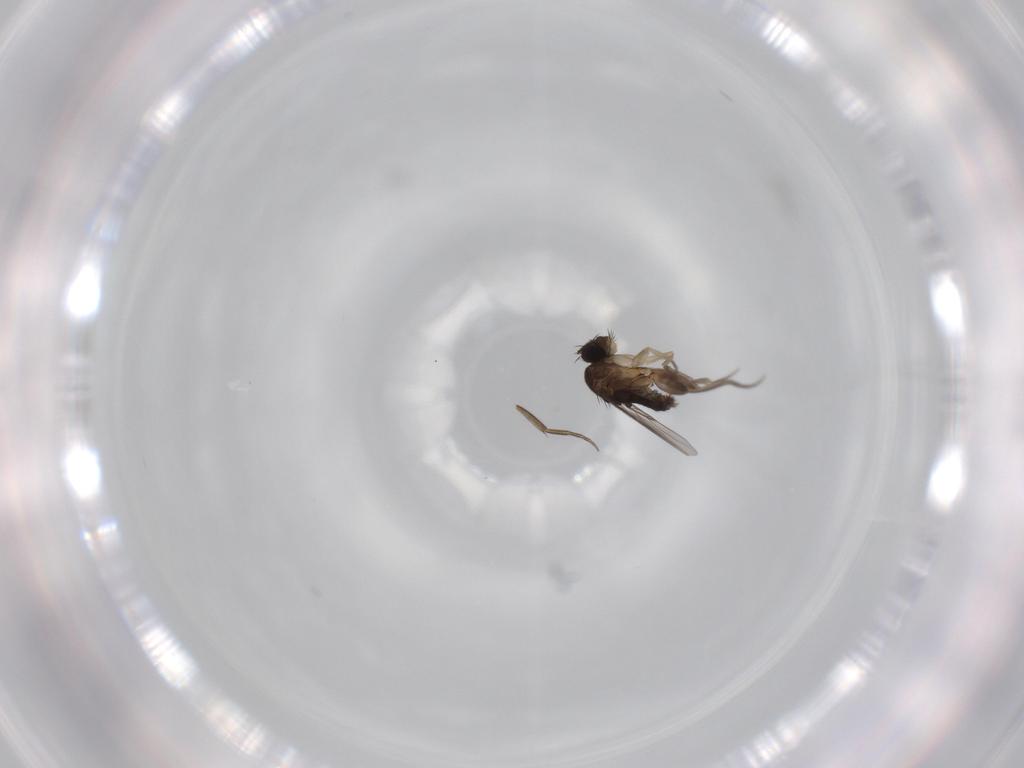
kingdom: Animalia
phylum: Arthropoda
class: Insecta
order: Diptera
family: Phoridae
